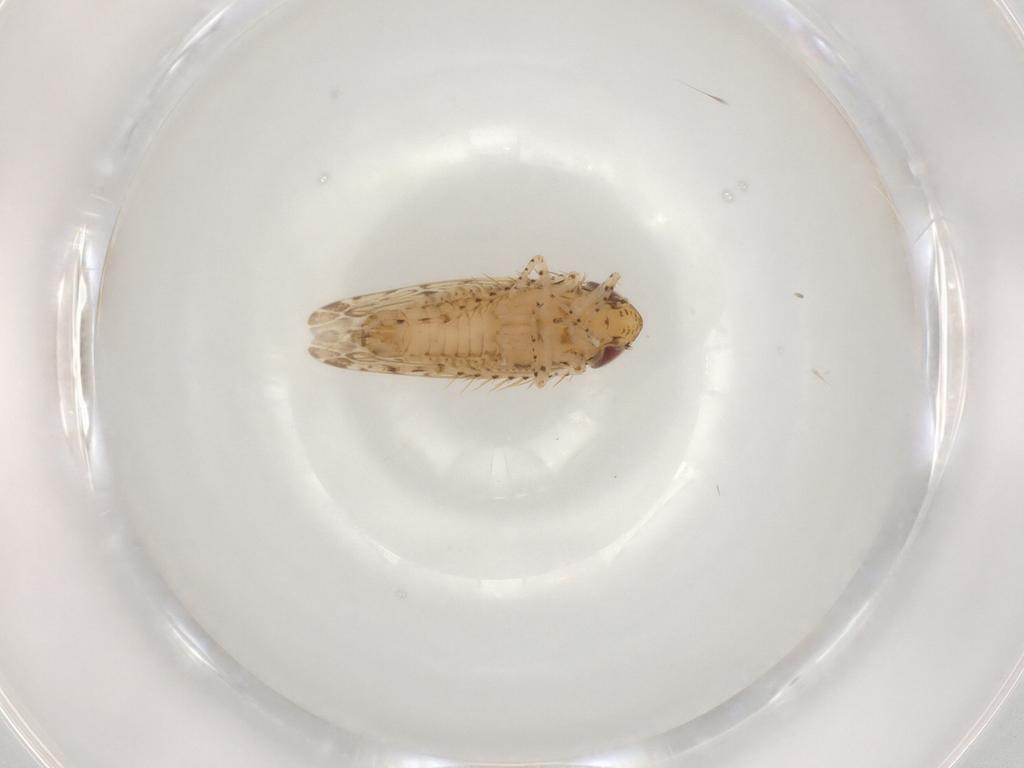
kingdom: Animalia
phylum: Arthropoda
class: Insecta
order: Hemiptera
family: Cicadellidae
